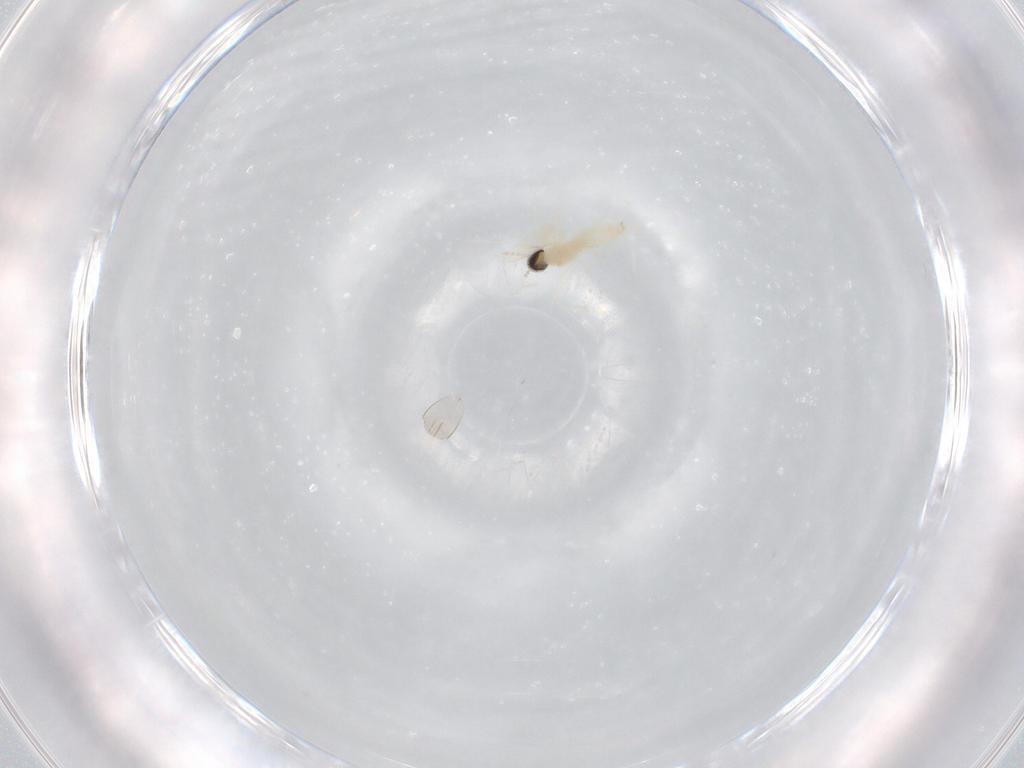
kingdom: Animalia
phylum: Arthropoda
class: Insecta
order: Diptera
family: Cecidomyiidae
